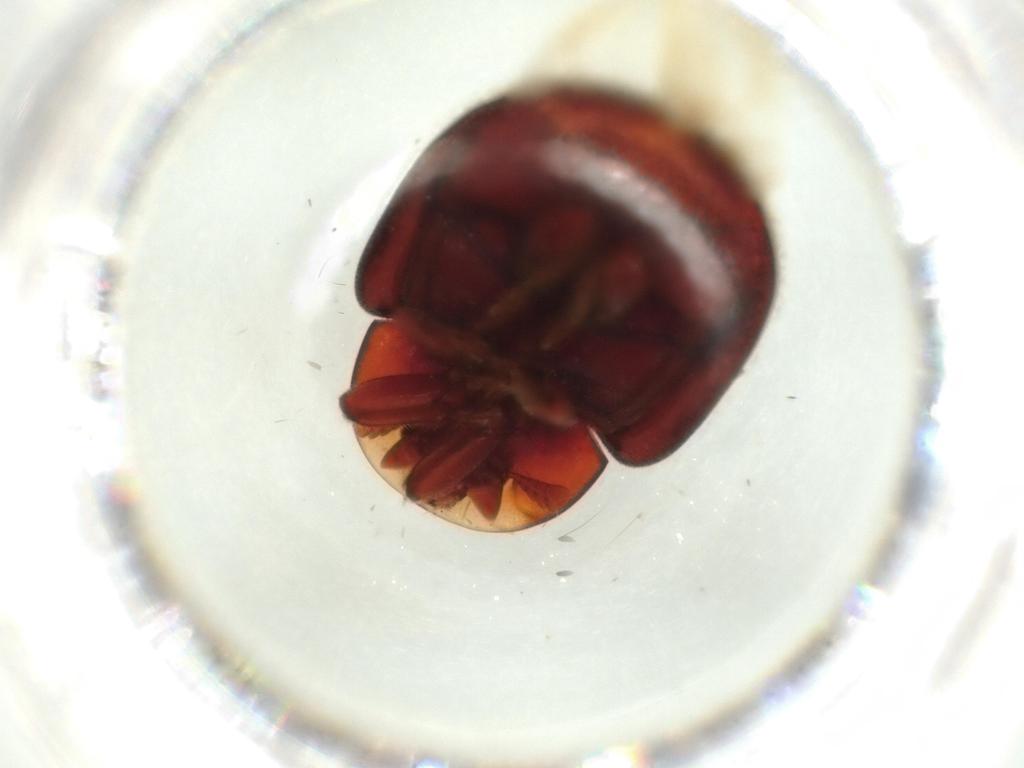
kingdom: Animalia
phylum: Arthropoda
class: Insecta
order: Coleoptera
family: Coccinellidae
